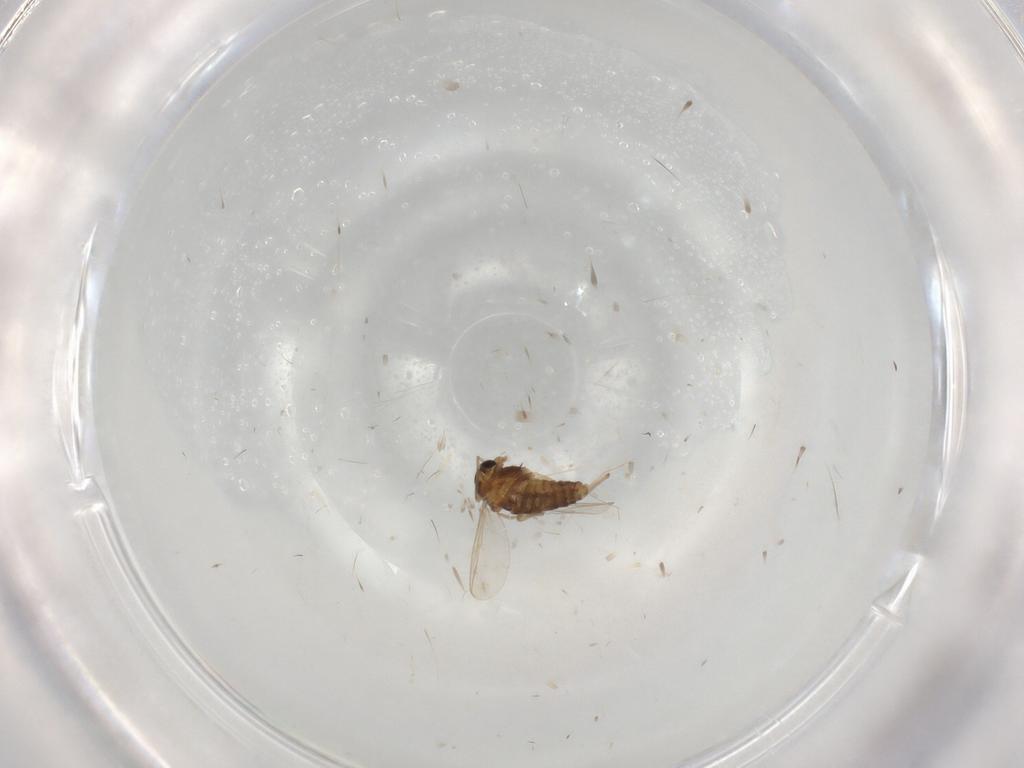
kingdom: Animalia
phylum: Arthropoda
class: Insecta
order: Diptera
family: Chironomidae
